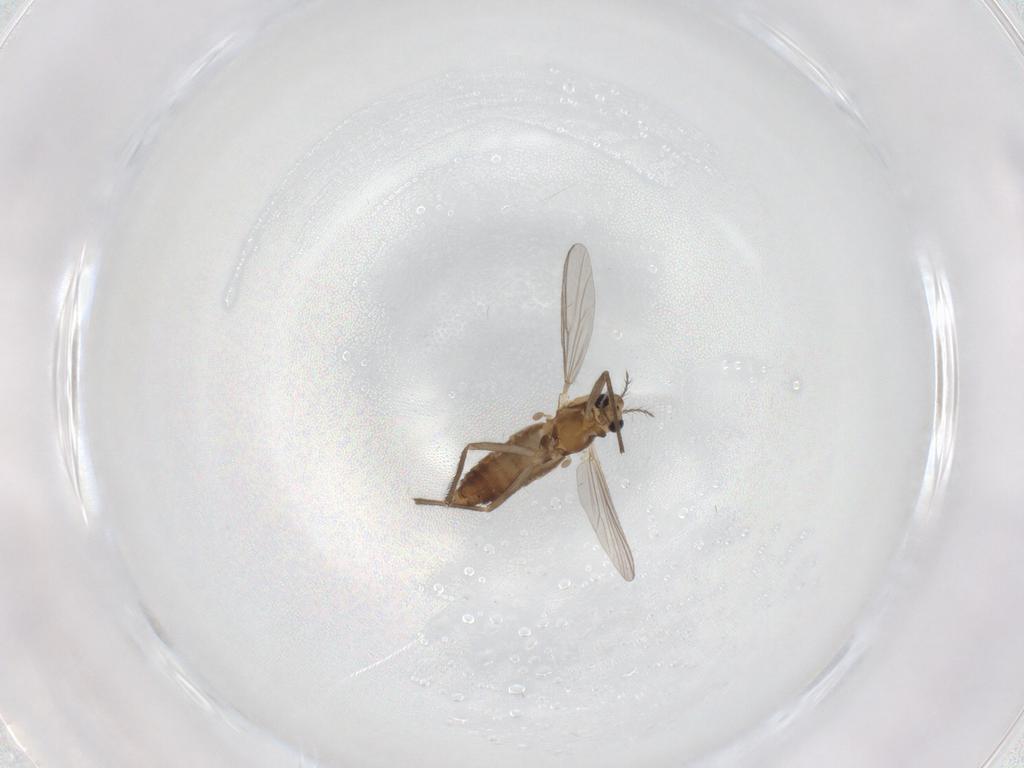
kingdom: Animalia
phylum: Arthropoda
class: Insecta
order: Diptera
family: Chironomidae
